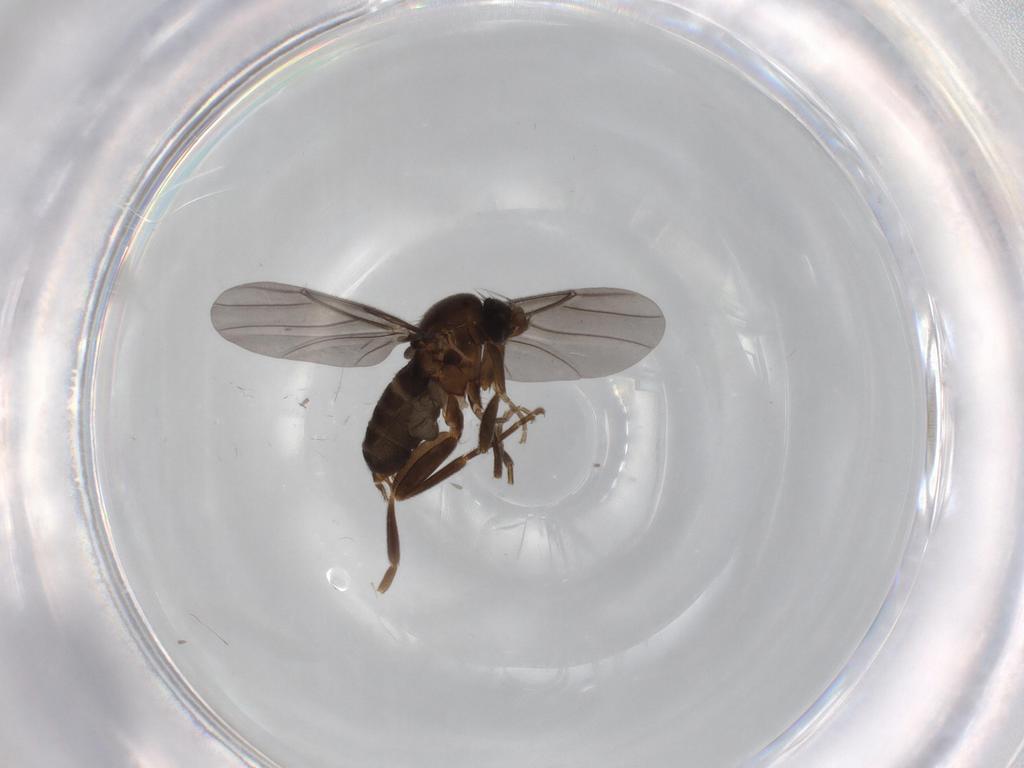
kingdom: Animalia
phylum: Arthropoda
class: Insecta
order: Diptera
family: Phoridae
